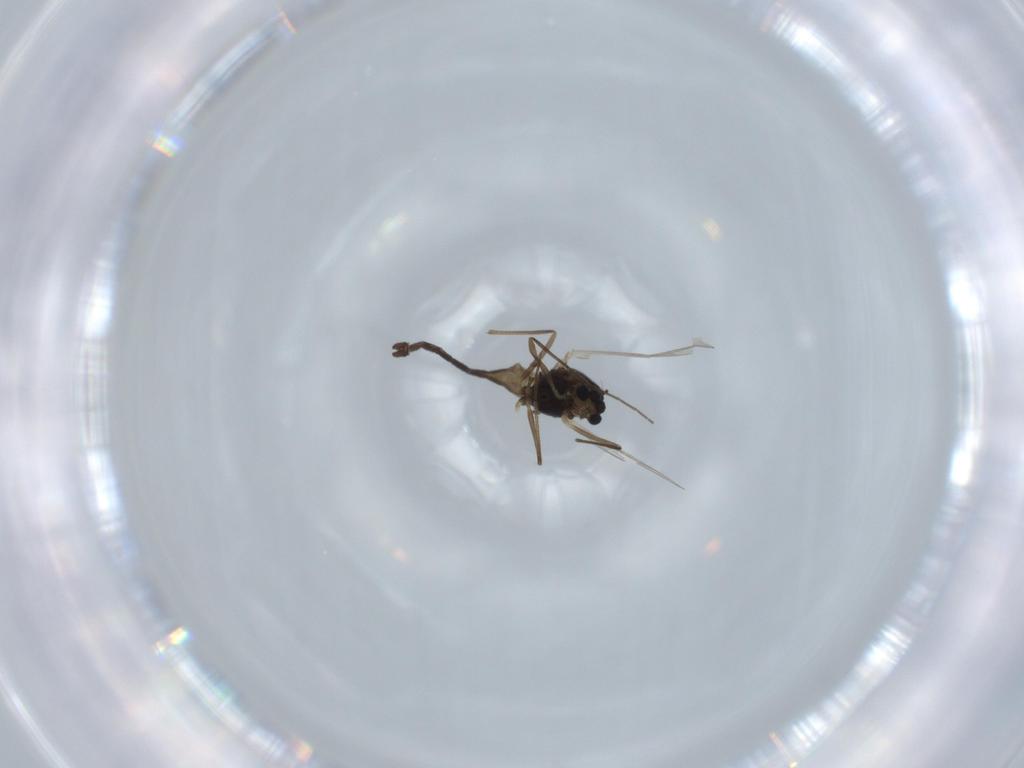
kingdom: Animalia
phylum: Arthropoda
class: Insecta
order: Diptera
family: Chironomidae
